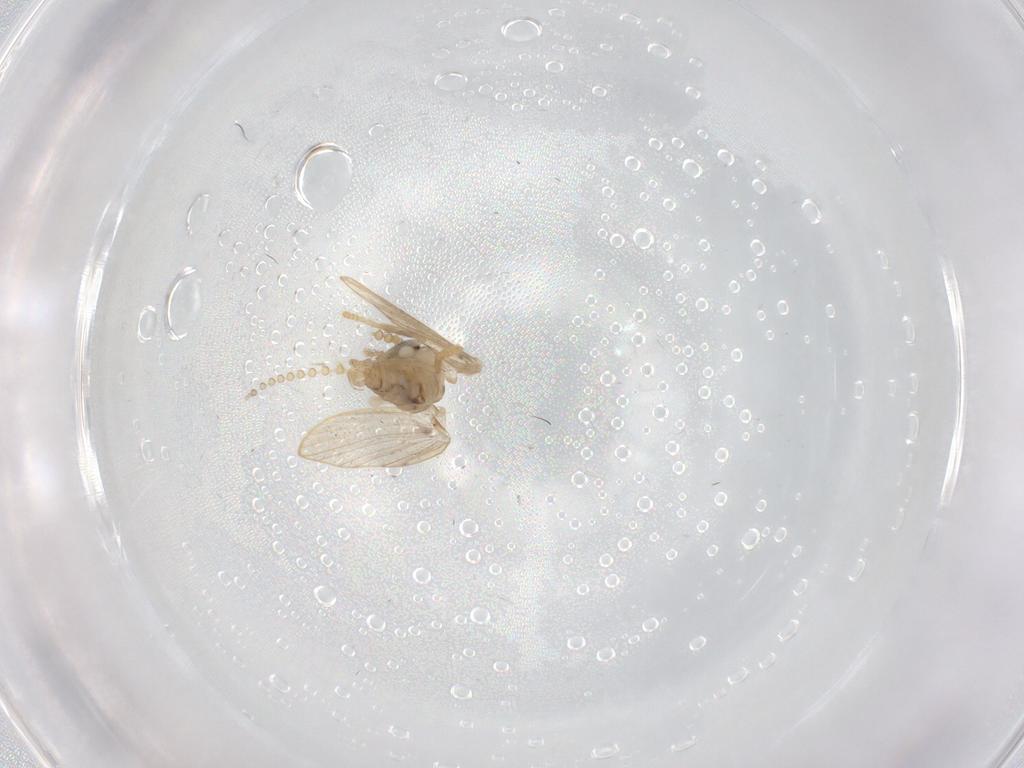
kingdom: Animalia
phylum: Arthropoda
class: Insecta
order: Diptera
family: Psychodidae
